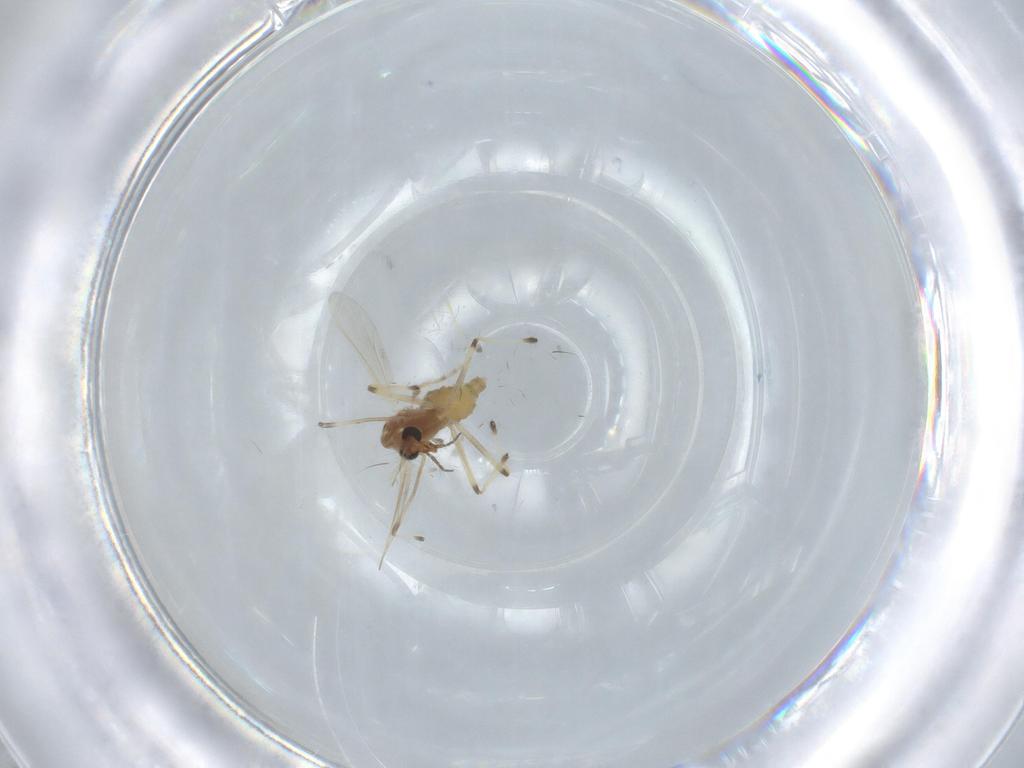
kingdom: Animalia
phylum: Arthropoda
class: Insecta
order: Diptera
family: Chironomidae
